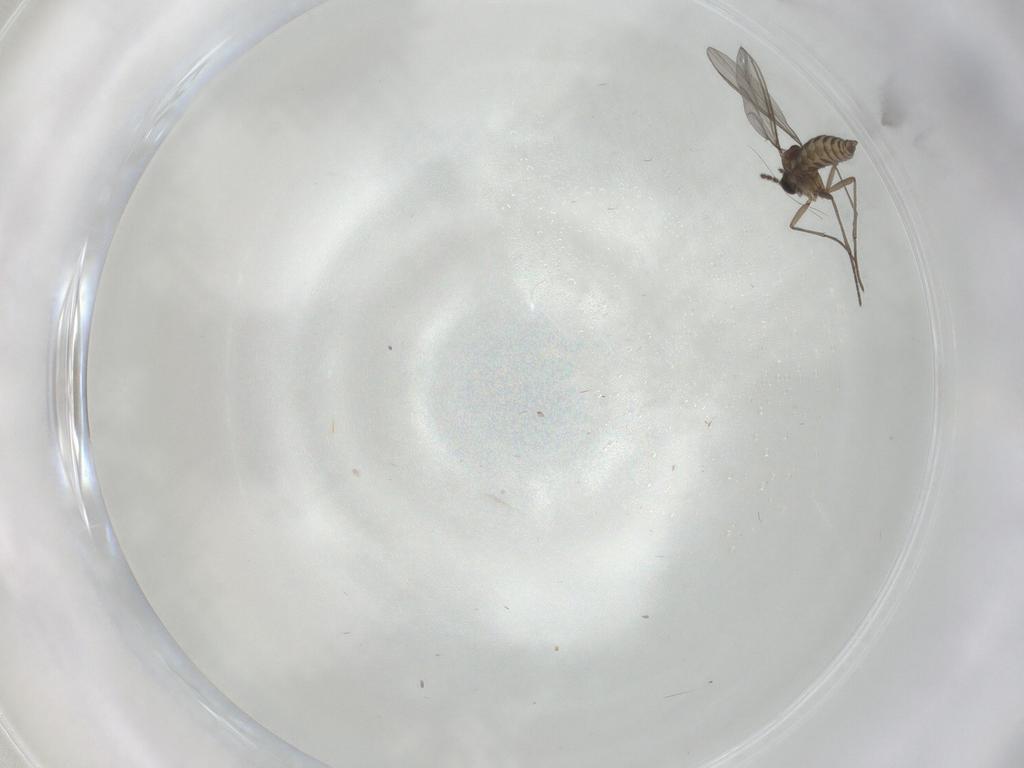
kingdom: Animalia
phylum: Arthropoda
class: Insecta
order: Diptera
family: Sciaridae
